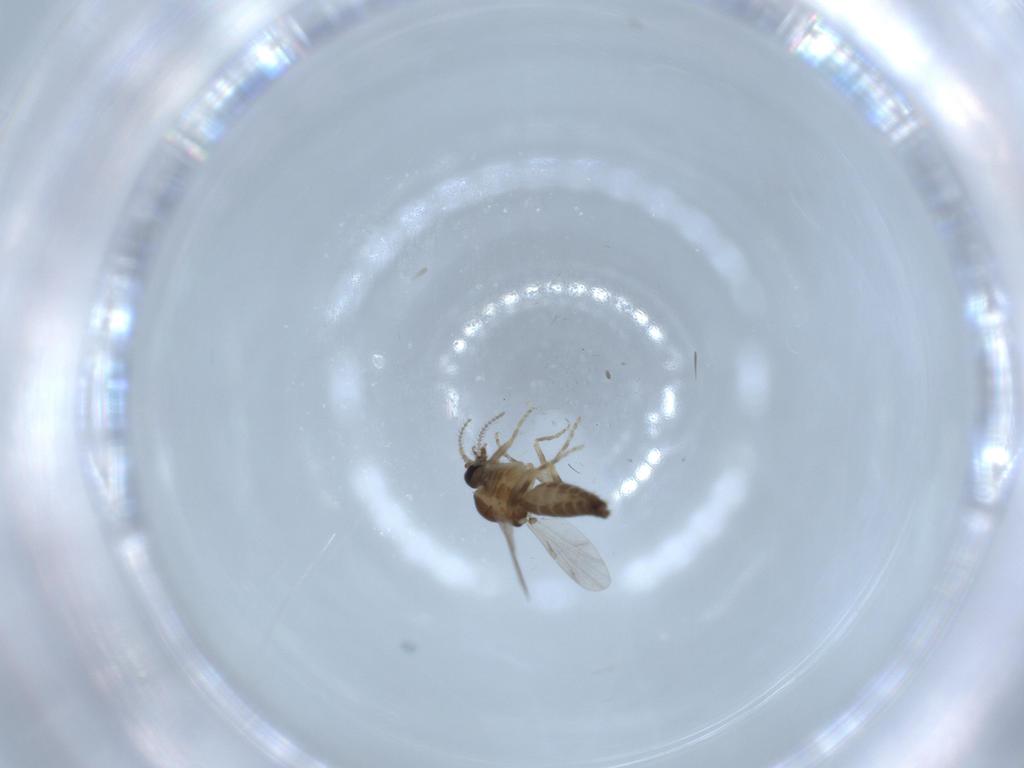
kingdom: Animalia
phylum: Arthropoda
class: Insecta
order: Diptera
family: Ceratopogonidae
